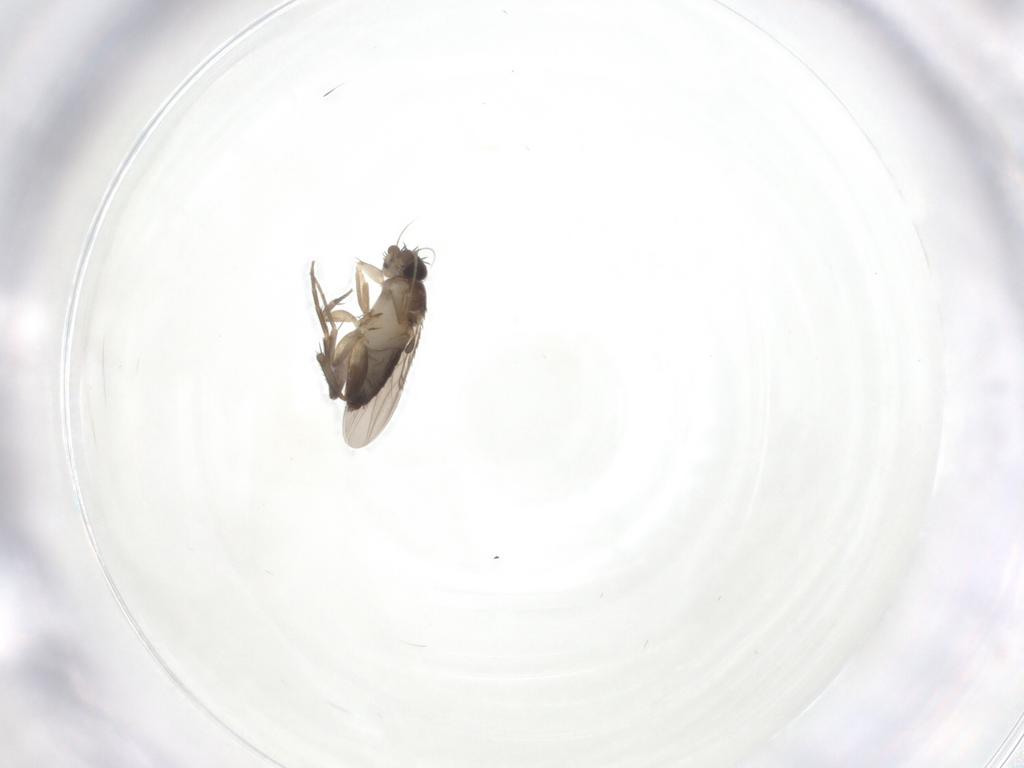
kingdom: Animalia
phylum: Arthropoda
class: Insecta
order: Diptera
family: Phoridae
